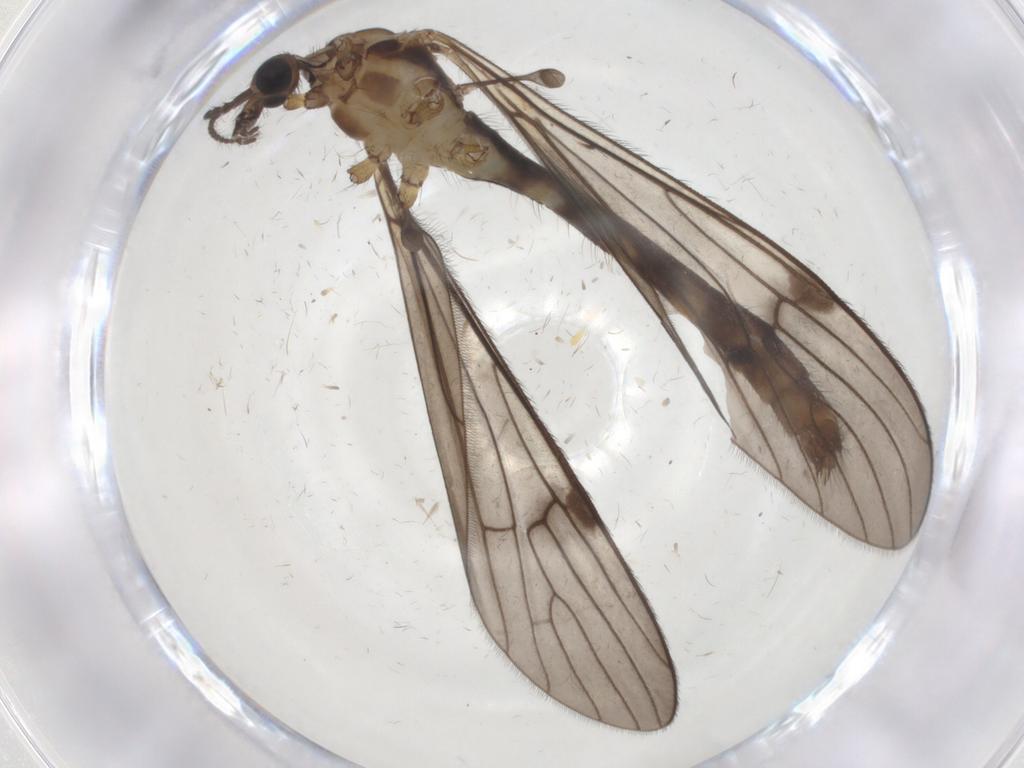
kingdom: Animalia
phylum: Arthropoda
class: Insecta
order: Diptera
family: Limoniidae
